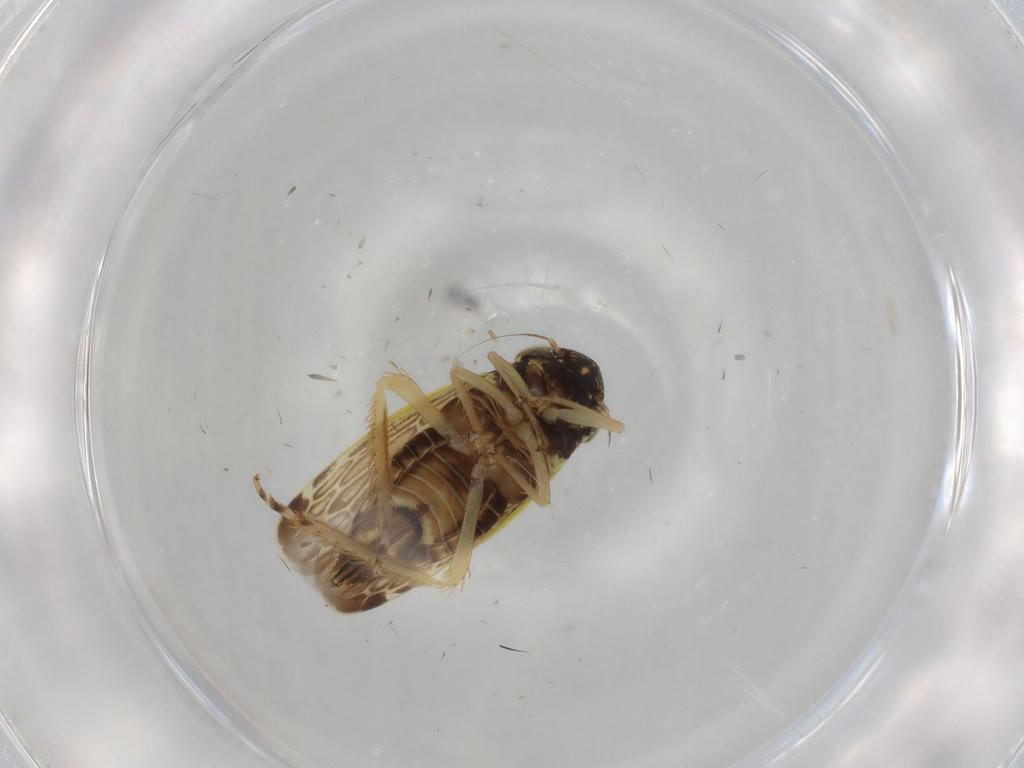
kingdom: Animalia
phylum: Arthropoda
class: Insecta
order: Hemiptera
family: Cicadellidae
